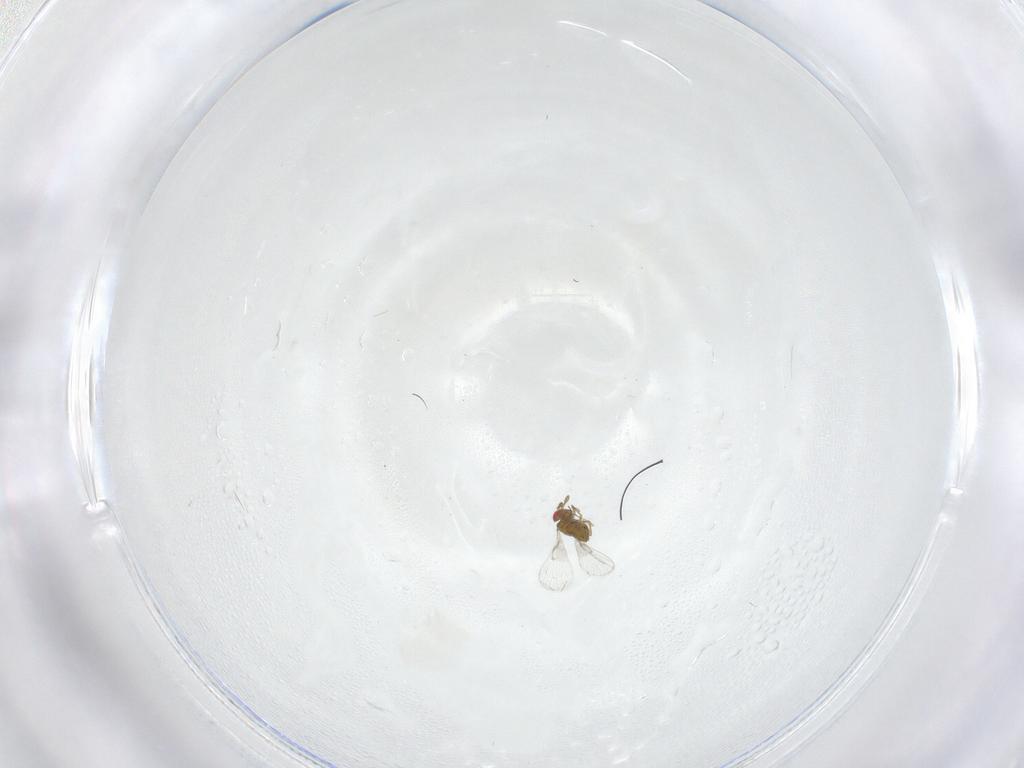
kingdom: Animalia
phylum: Arthropoda
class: Insecta
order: Hymenoptera
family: Trichogrammatidae
